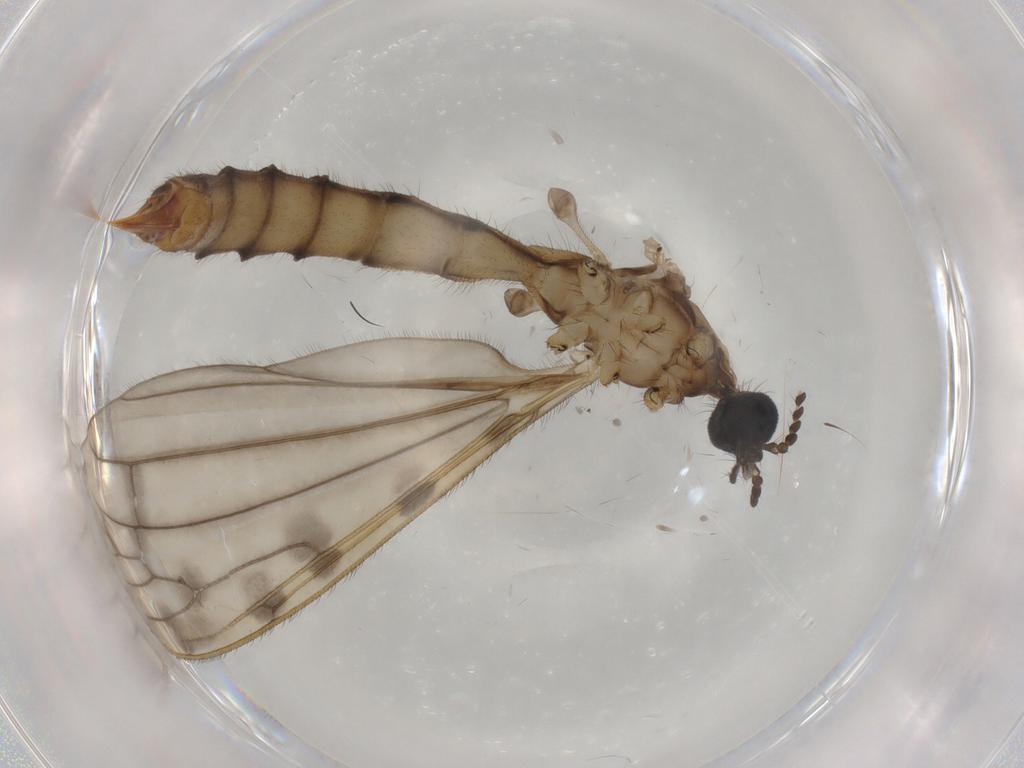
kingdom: Animalia
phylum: Arthropoda
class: Insecta
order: Diptera
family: Limoniidae
